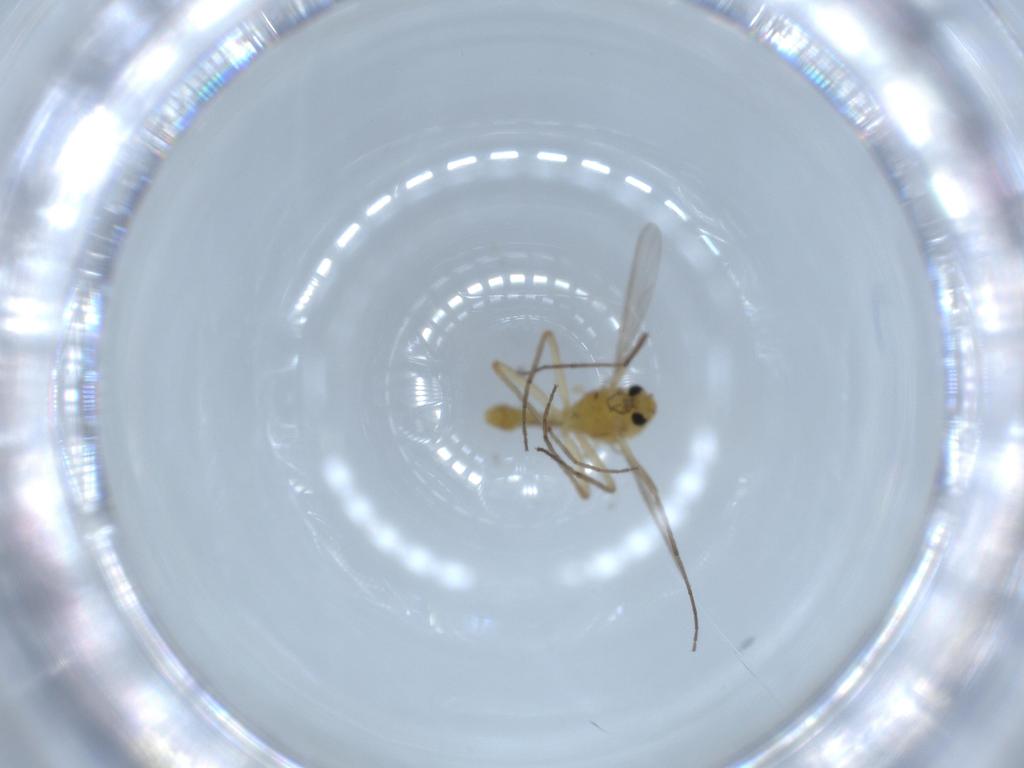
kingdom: Animalia
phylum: Arthropoda
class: Insecta
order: Diptera
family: Chironomidae
